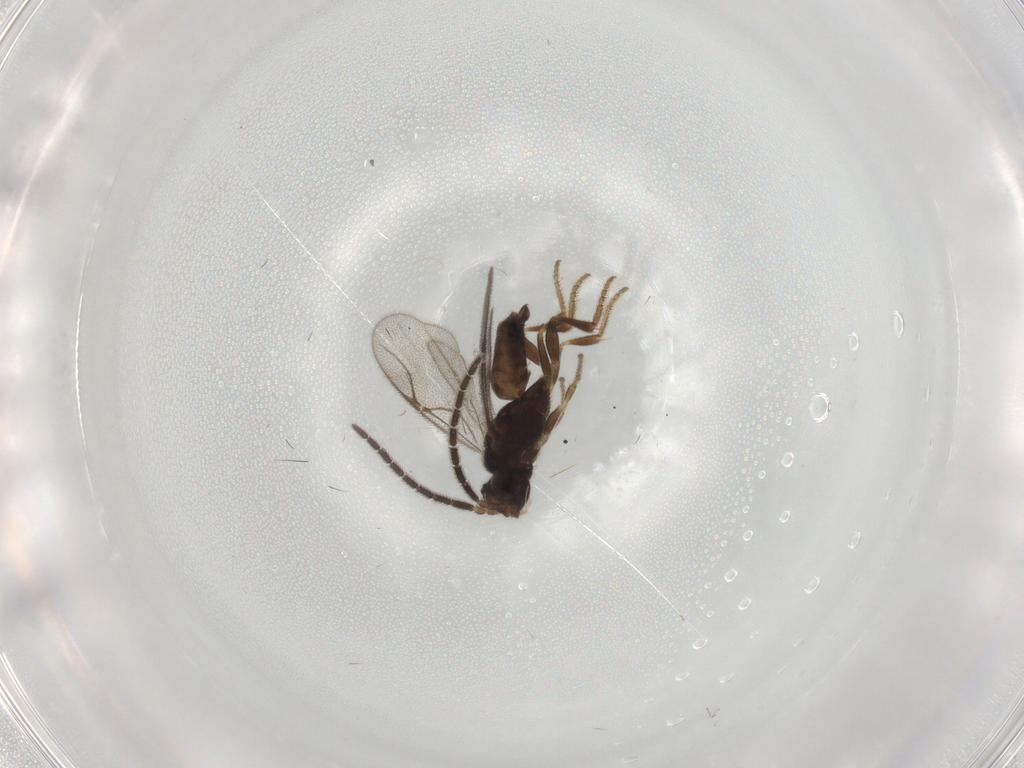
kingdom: Animalia
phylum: Arthropoda
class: Insecta
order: Hymenoptera
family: Dryinidae
